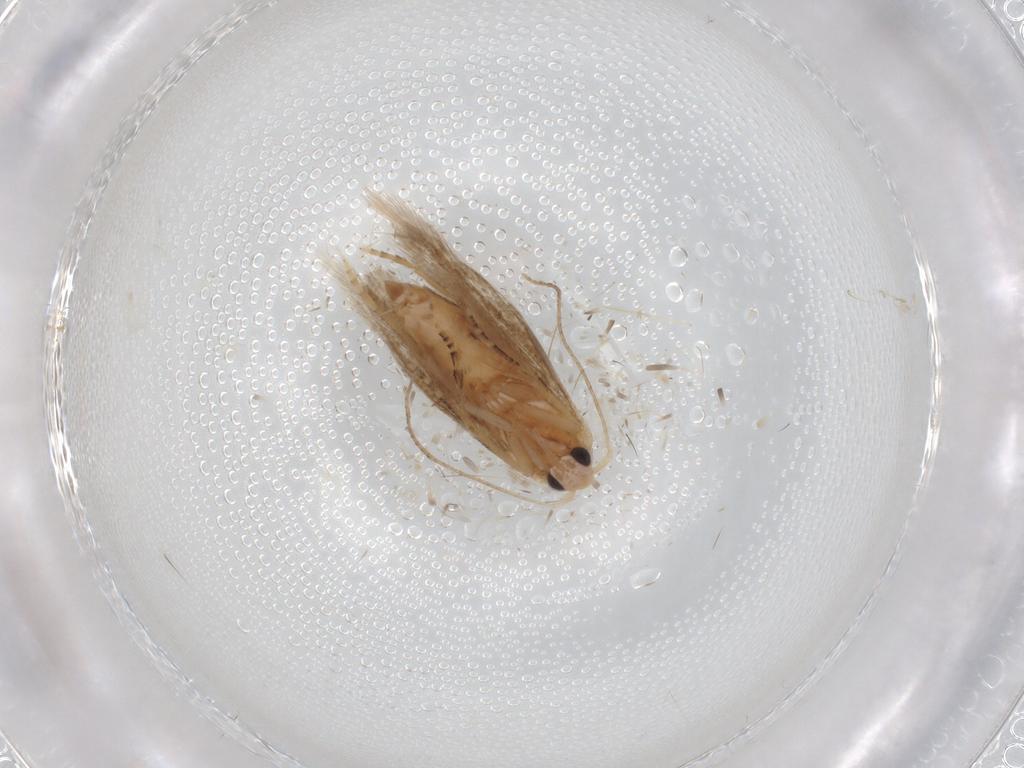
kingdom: Animalia
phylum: Arthropoda
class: Insecta
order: Lepidoptera
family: Bucculatricidae
